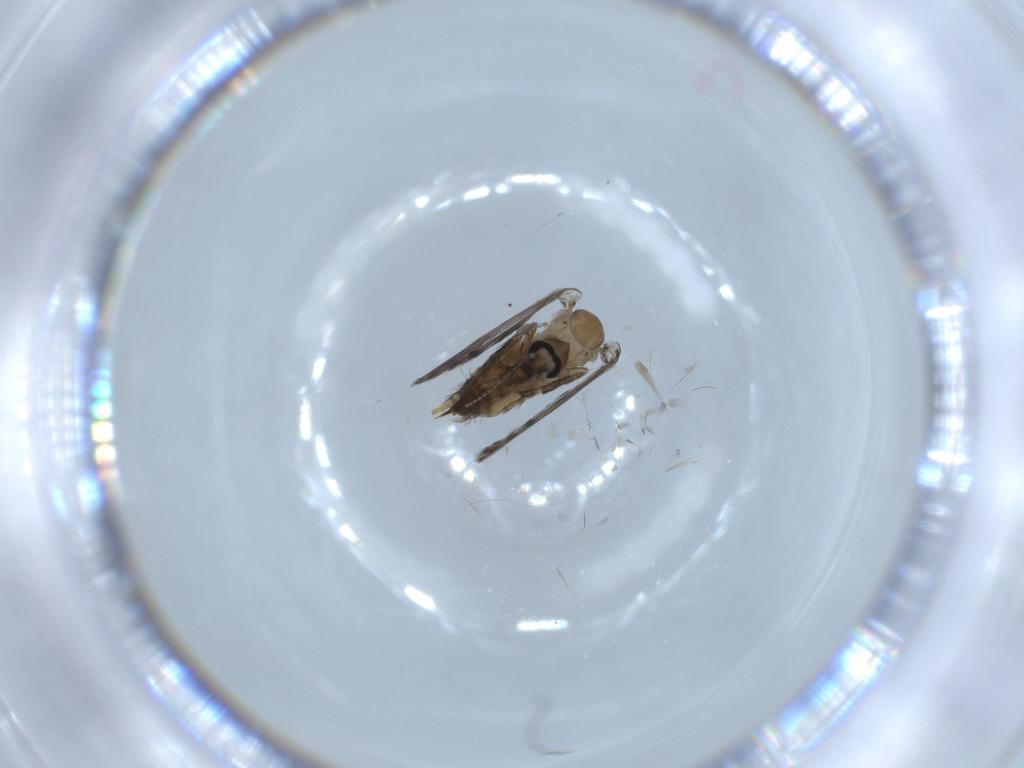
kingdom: Animalia
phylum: Arthropoda
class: Insecta
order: Diptera
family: Psychodidae
